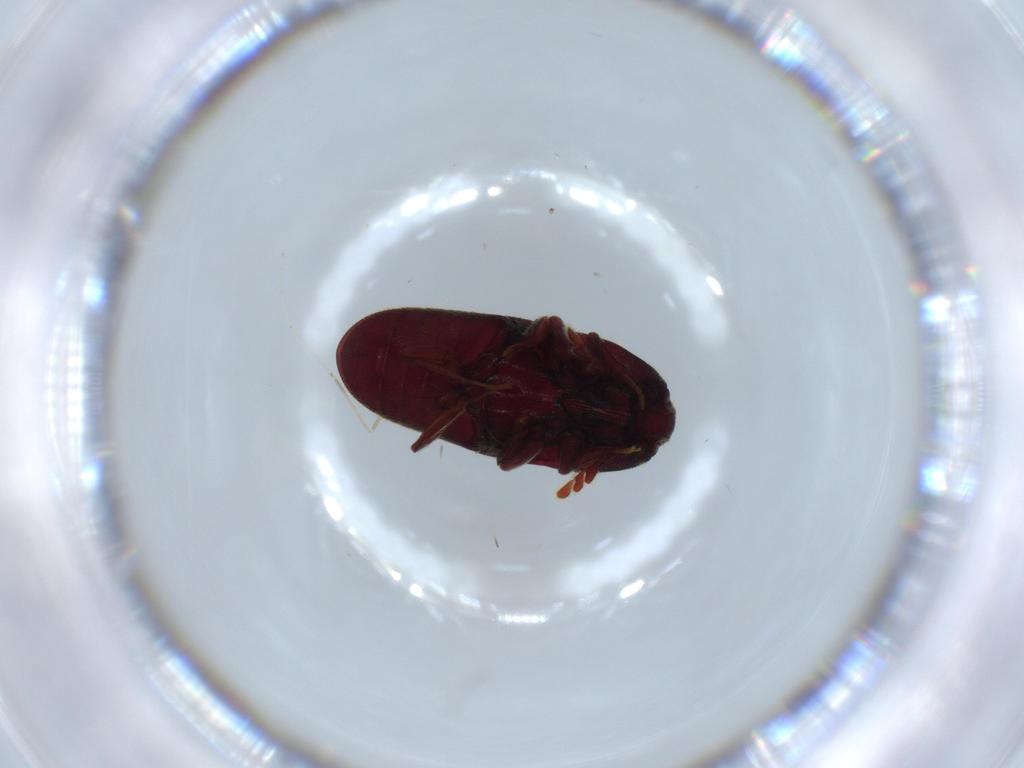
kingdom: Animalia
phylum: Arthropoda
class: Insecta
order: Coleoptera
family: Throscidae
